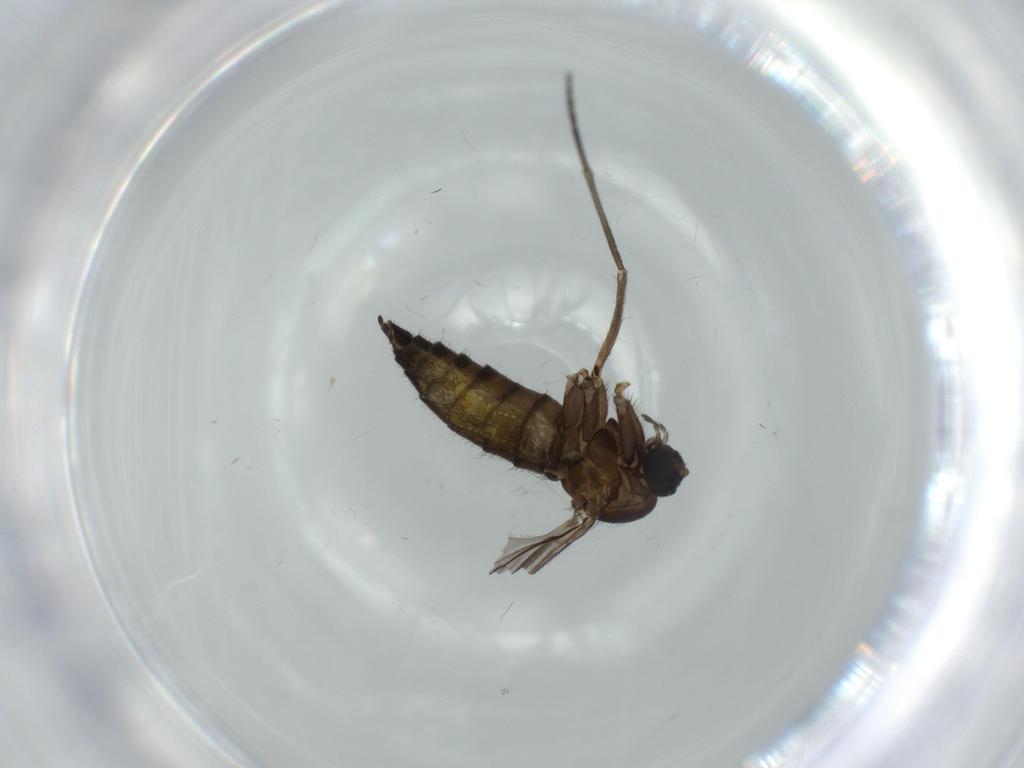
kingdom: Animalia
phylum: Arthropoda
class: Insecta
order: Diptera
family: Sciaridae
